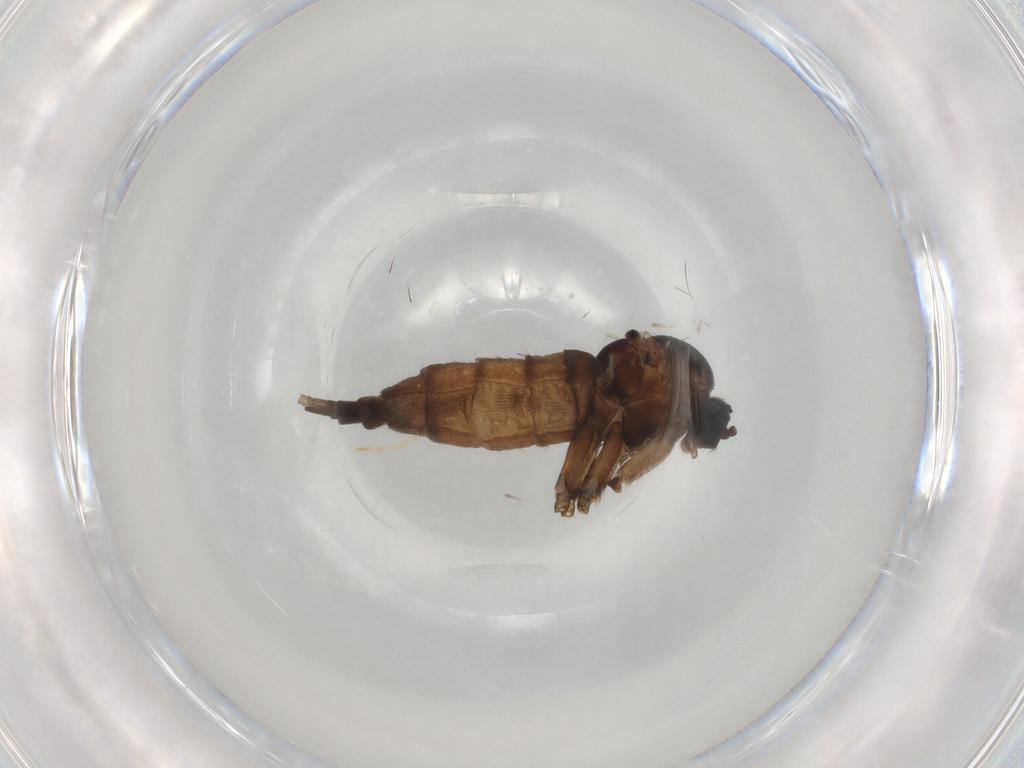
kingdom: Animalia
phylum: Arthropoda
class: Insecta
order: Diptera
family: Sciaridae
